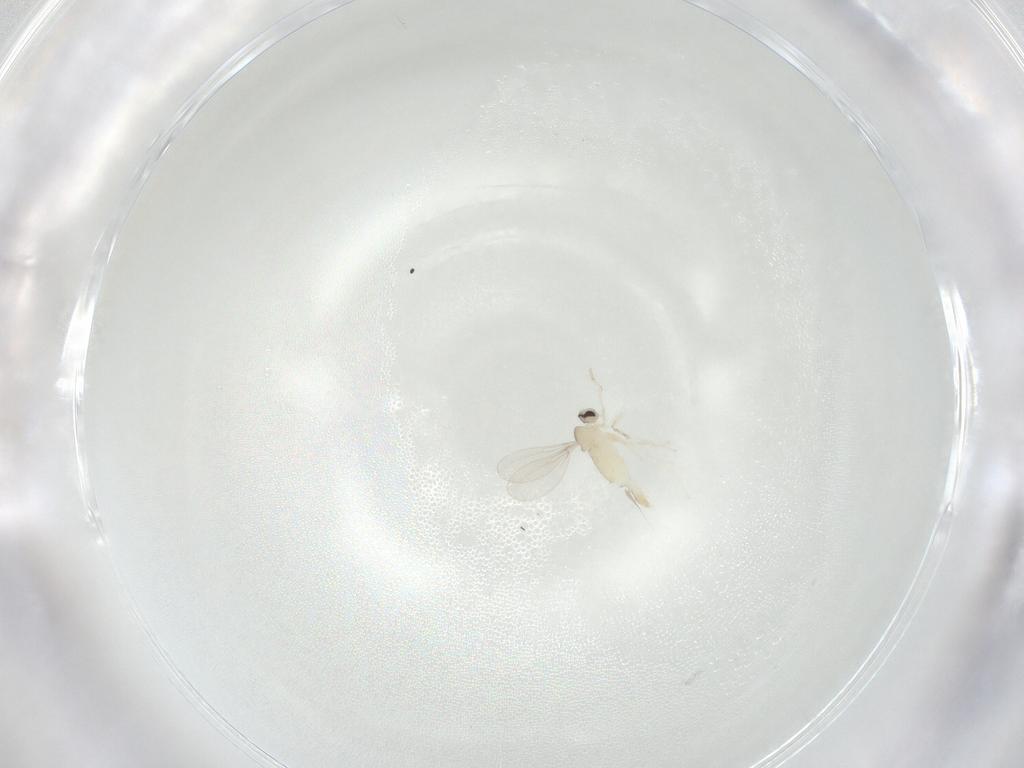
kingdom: Animalia
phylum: Arthropoda
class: Insecta
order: Diptera
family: Cecidomyiidae
